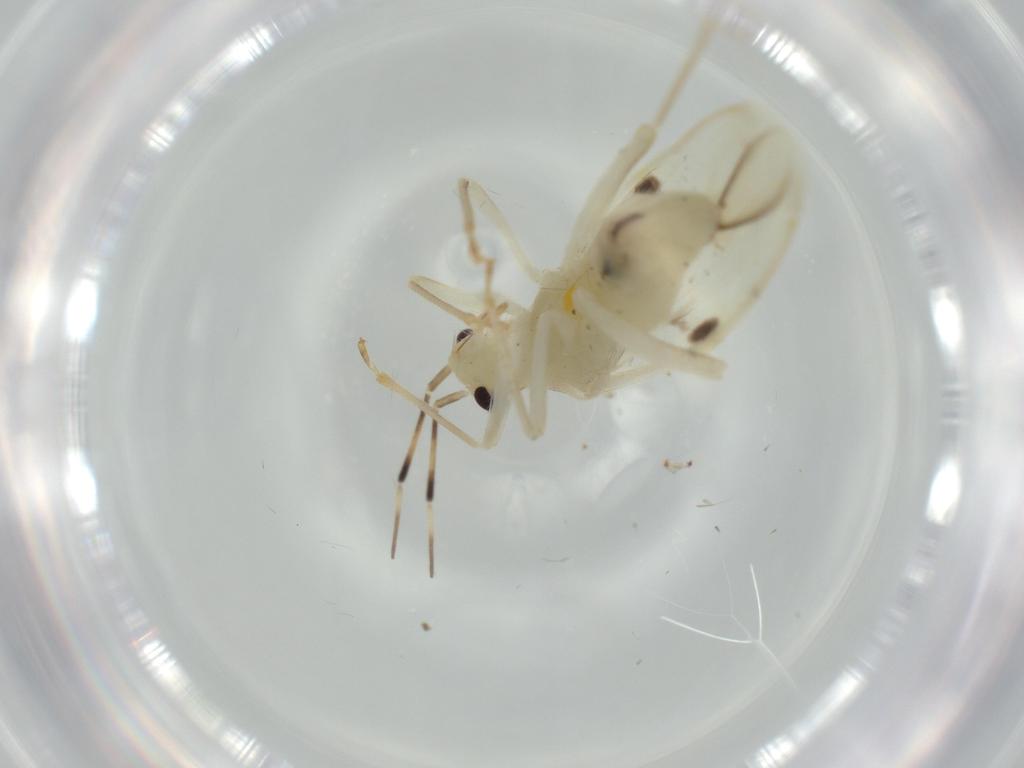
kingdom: Animalia
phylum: Arthropoda
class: Insecta
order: Hemiptera
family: Miridae
